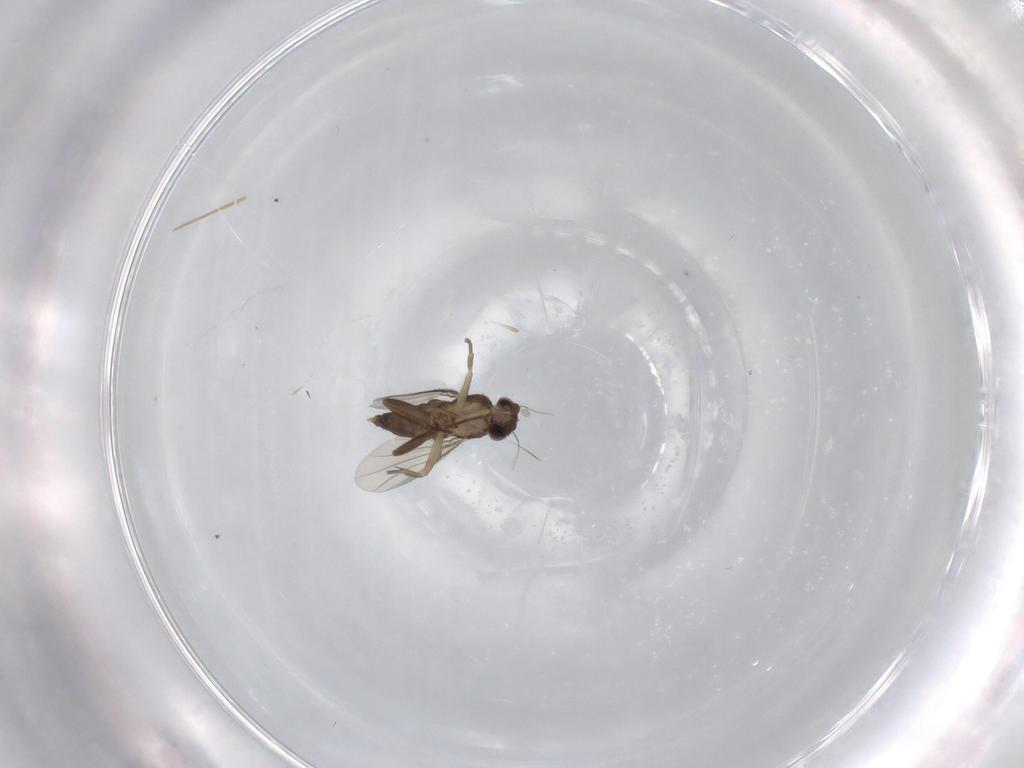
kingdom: Animalia
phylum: Arthropoda
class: Insecta
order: Diptera
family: Phoridae
